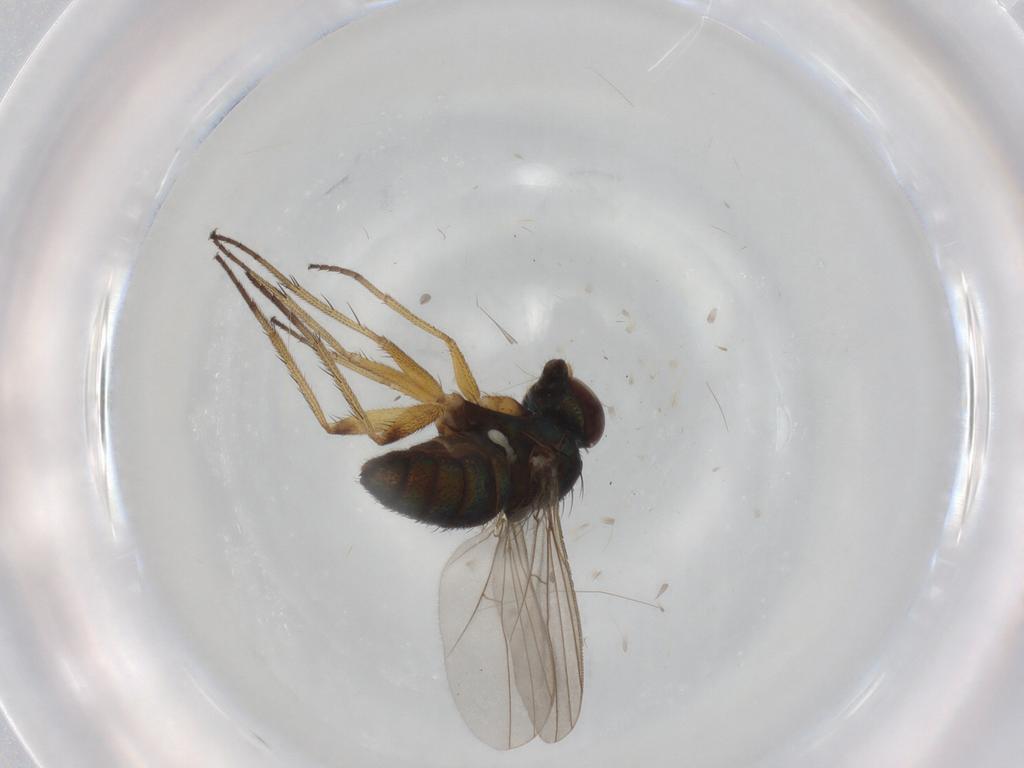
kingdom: Animalia
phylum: Arthropoda
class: Insecta
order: Diptera
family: Dolichopodidae
